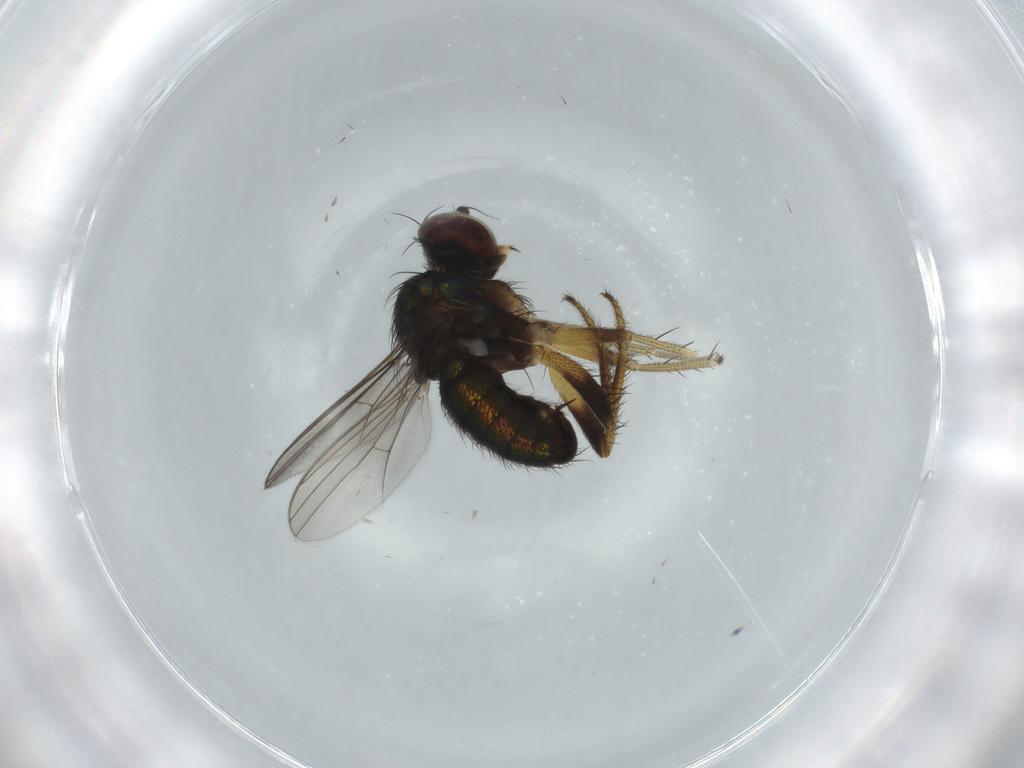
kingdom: Animalia
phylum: Arthropoda
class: Insecta
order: Diptera
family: Dolichopodidae
